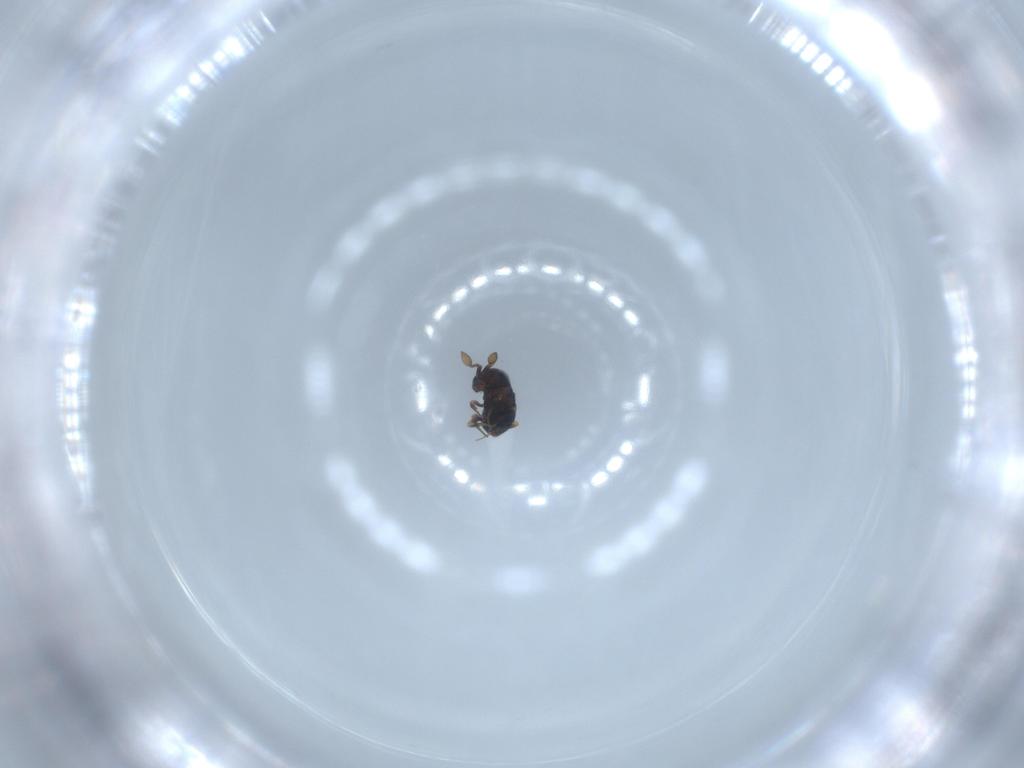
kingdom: Animalia
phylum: Arthropoda
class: Insecta
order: Hymenoptera
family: Scelionidae
